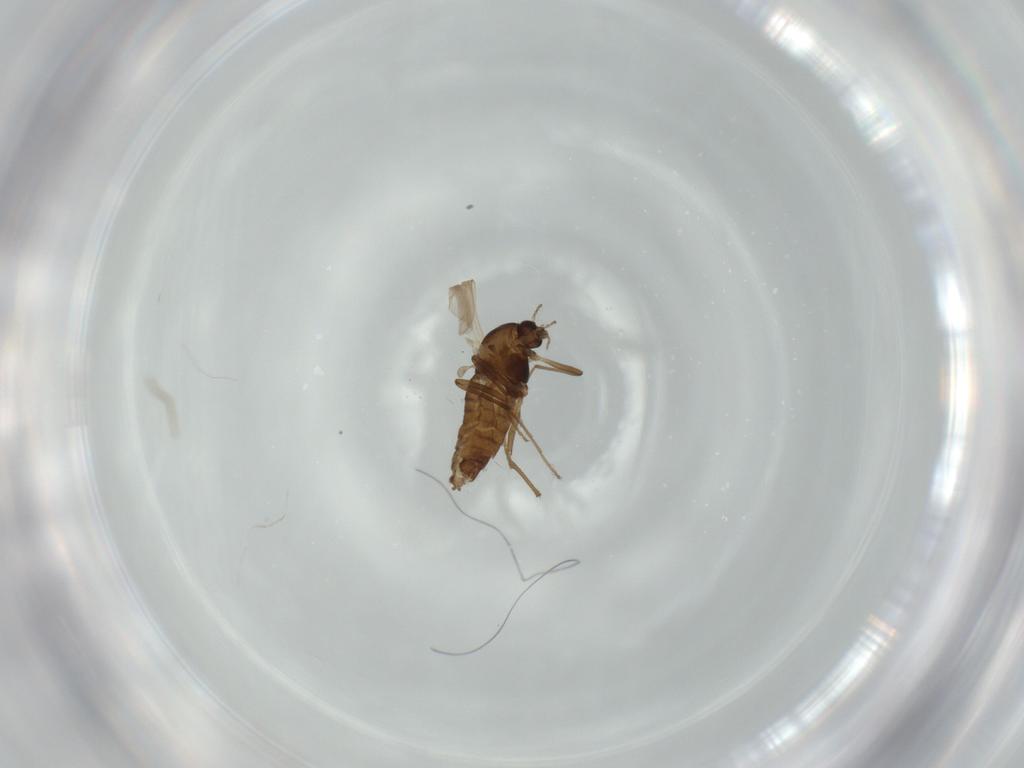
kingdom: Animalia
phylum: Arthropoda
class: Insecta
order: Diptera
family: Chironomidae
